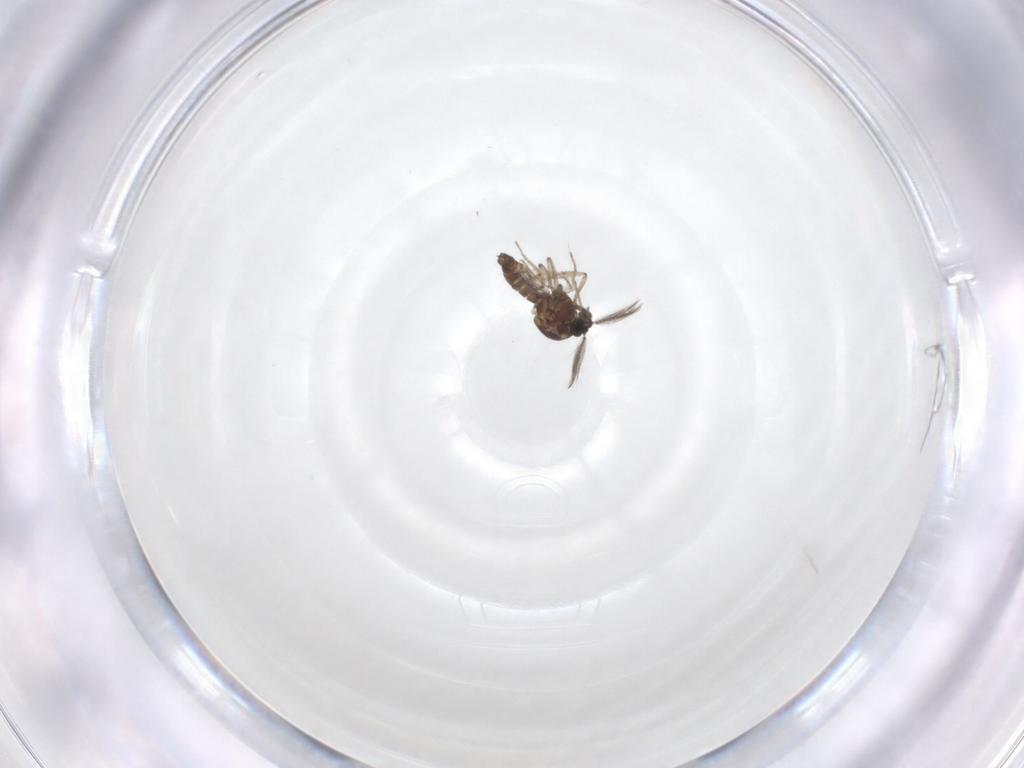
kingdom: Animalia
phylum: Arthropoda
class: Insecta
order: Diptera
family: Ceratopogonidae
